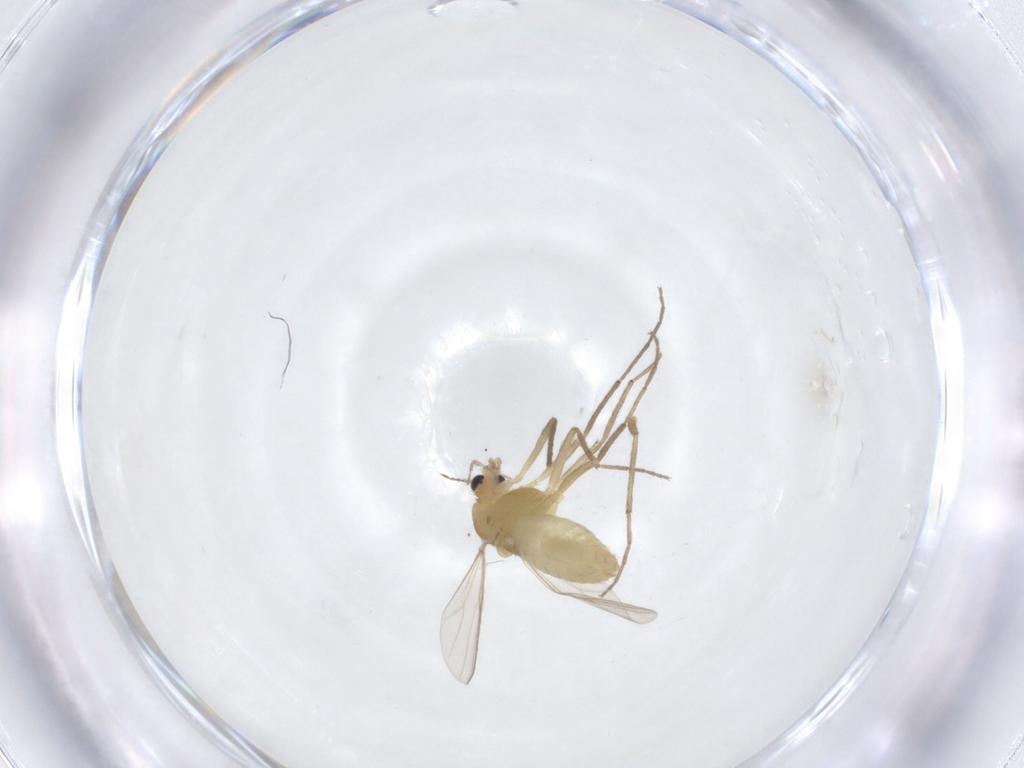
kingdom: Animalia
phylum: Arthropoda
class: Insecta
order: Diptera
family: Chironomidae
